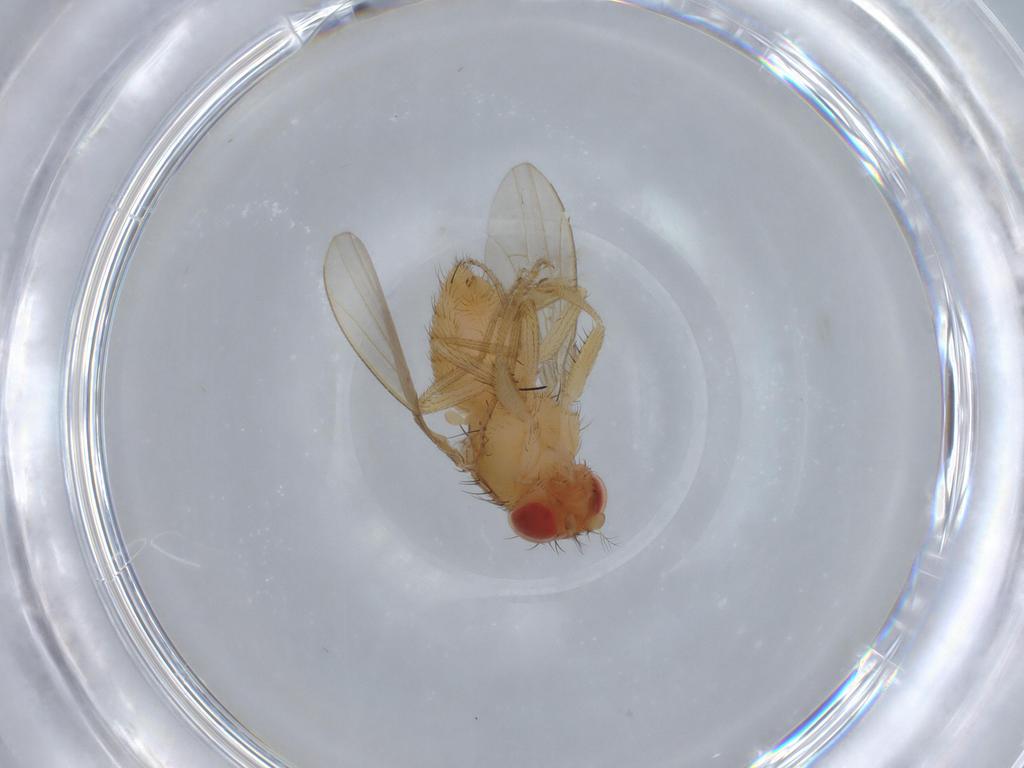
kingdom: Animalia
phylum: Arthropoda
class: Insecta
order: Diptera
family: Drosophilidae
